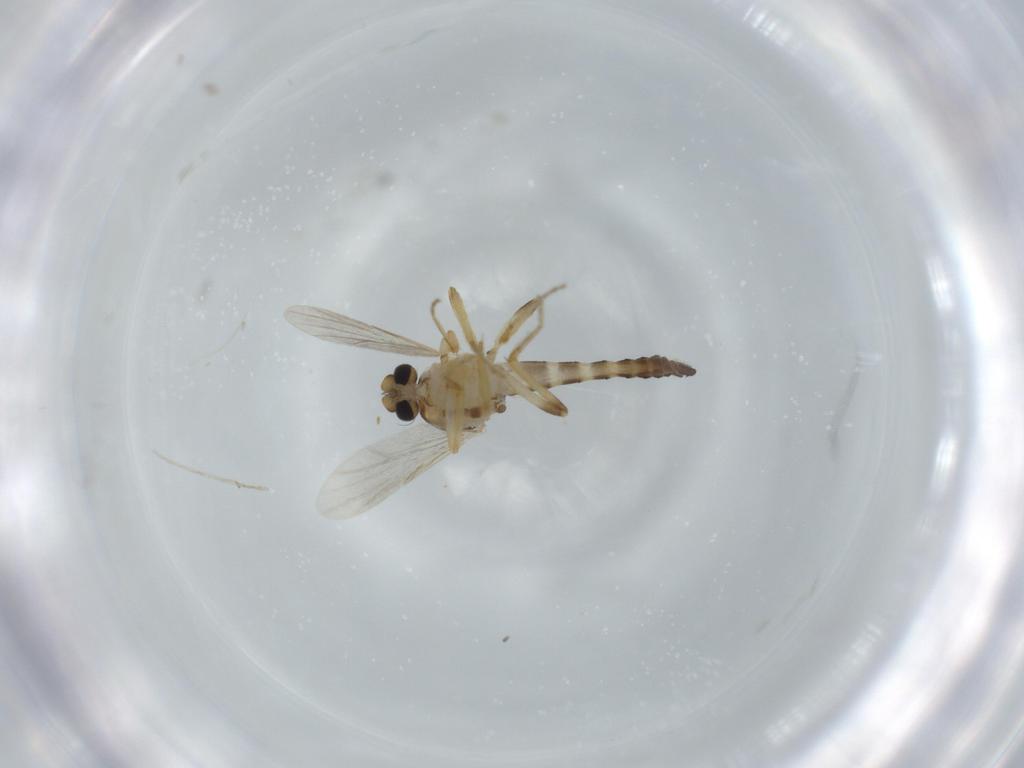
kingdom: Animalia
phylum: Arthropoda
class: Insecta
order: Diptera
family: Ceratopogonidae
